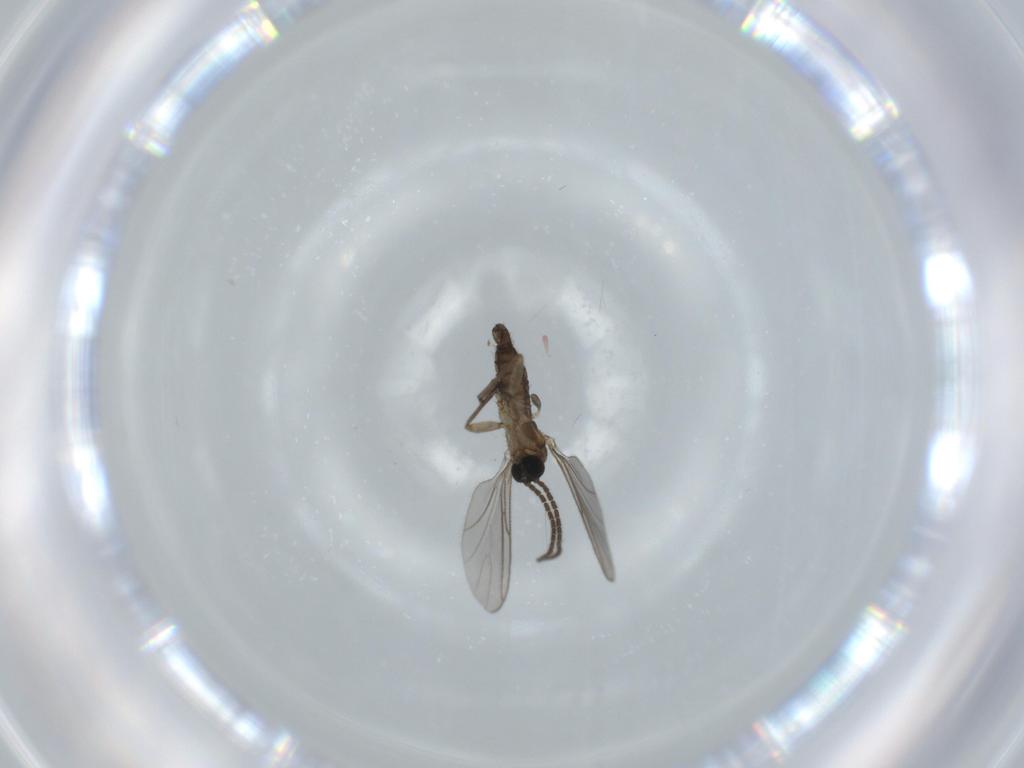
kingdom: Animalia
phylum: Arthropoda
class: Insecta
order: Diptera
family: Sciaridae
